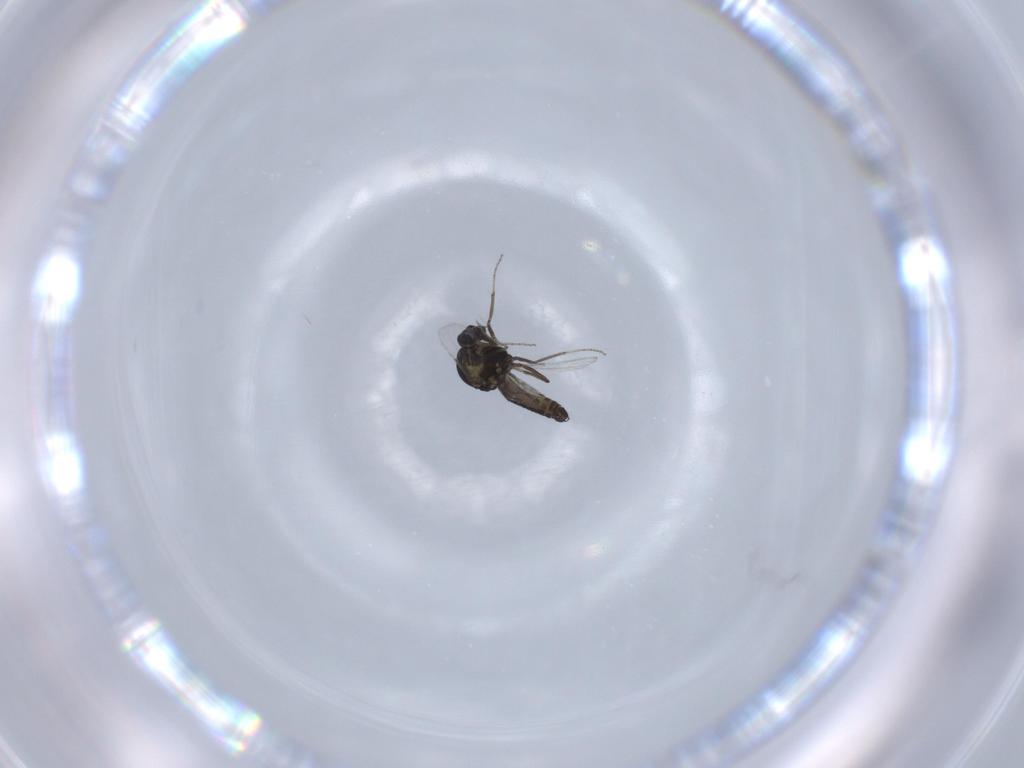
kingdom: Animalia
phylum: Arthropoda
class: Insecta
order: Diptera
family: Ceratopogonidae
